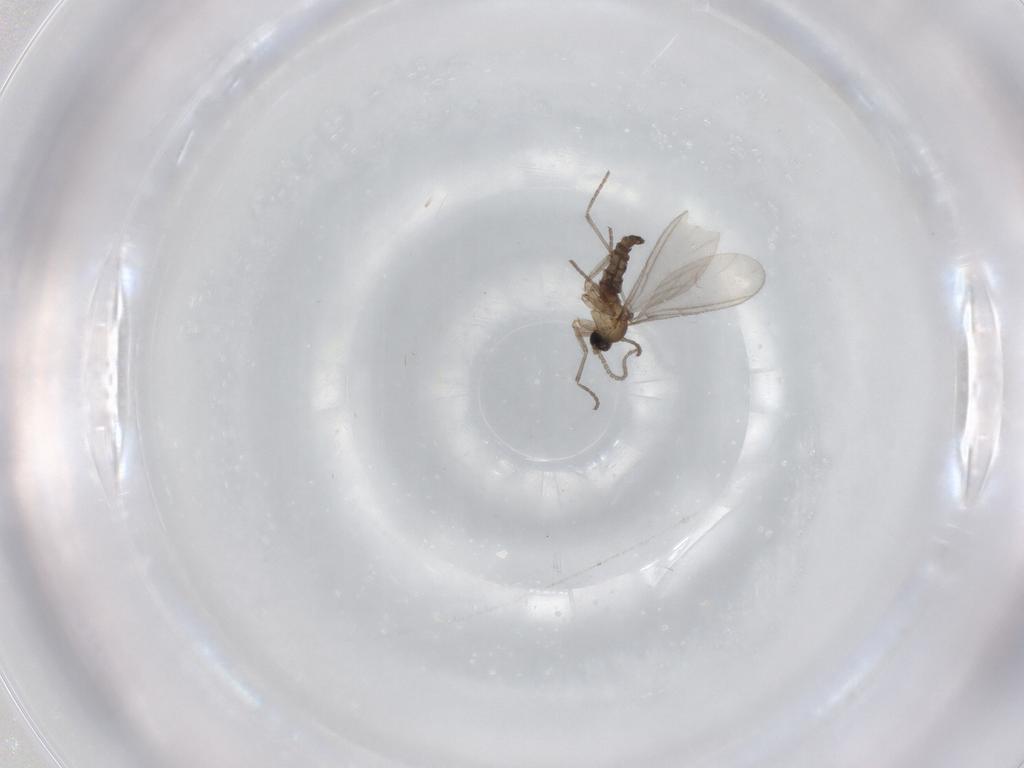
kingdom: Animalia
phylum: Arthropoda
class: Insecta
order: Diptera
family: Sciaridae
